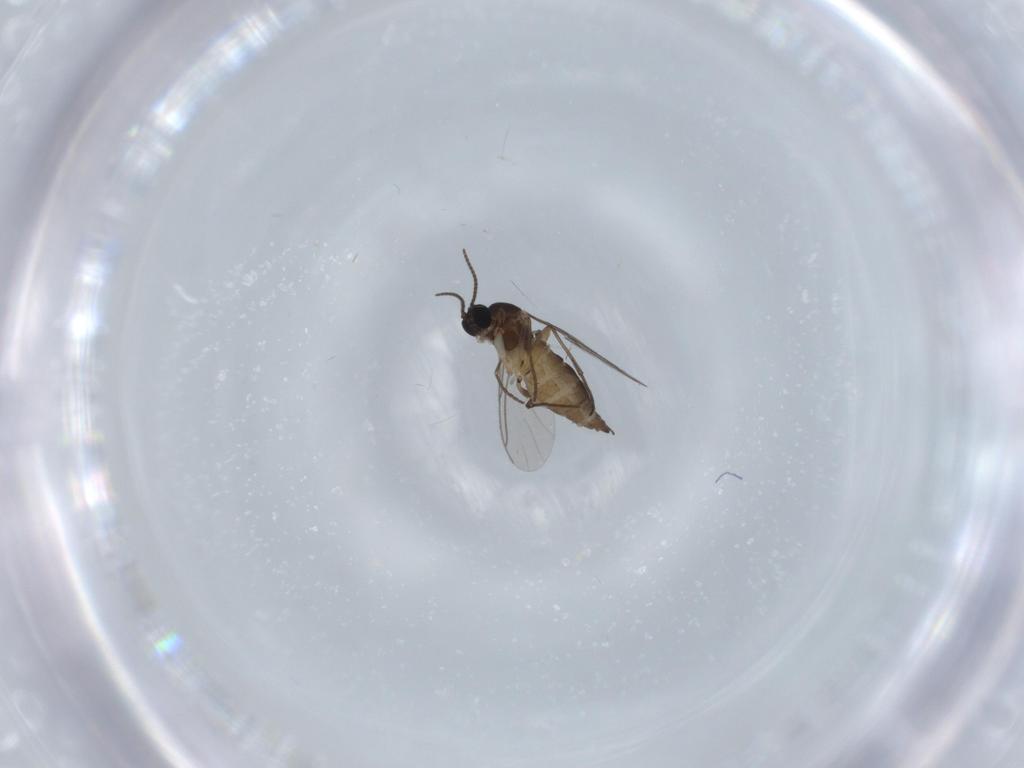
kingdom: Animalia
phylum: Arthropoda
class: Insecta
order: Diptera
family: Sciaridae
